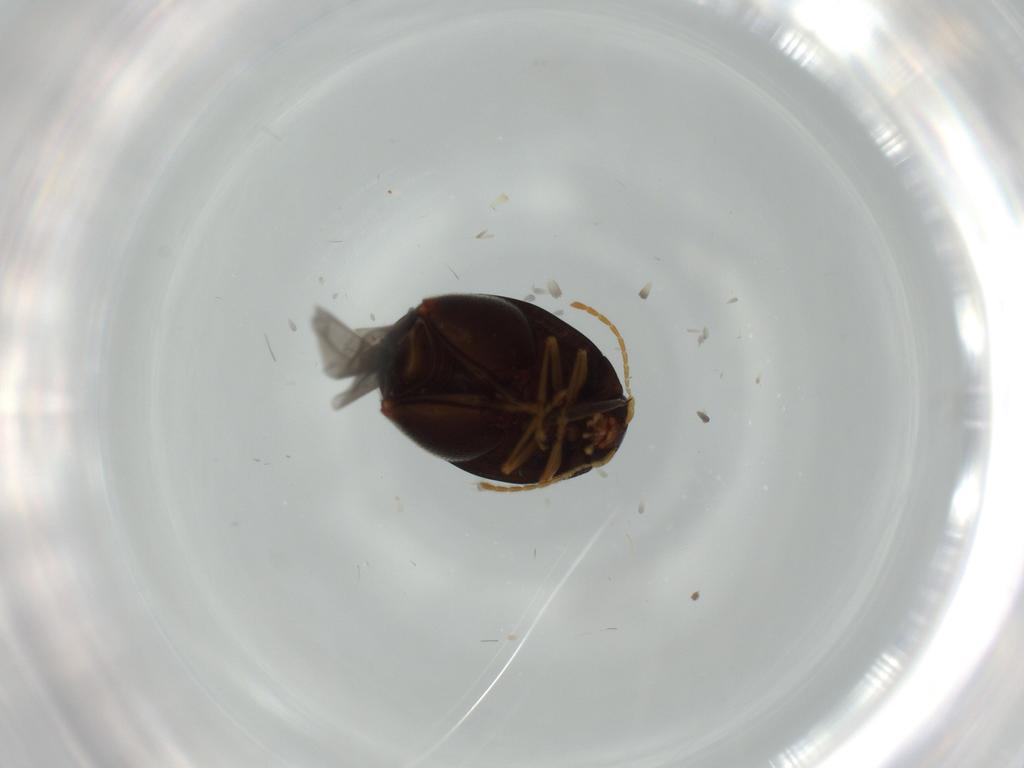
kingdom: Animalia
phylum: Arthropoda
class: Insecta
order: Coleoptera
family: Chrysomelidae
